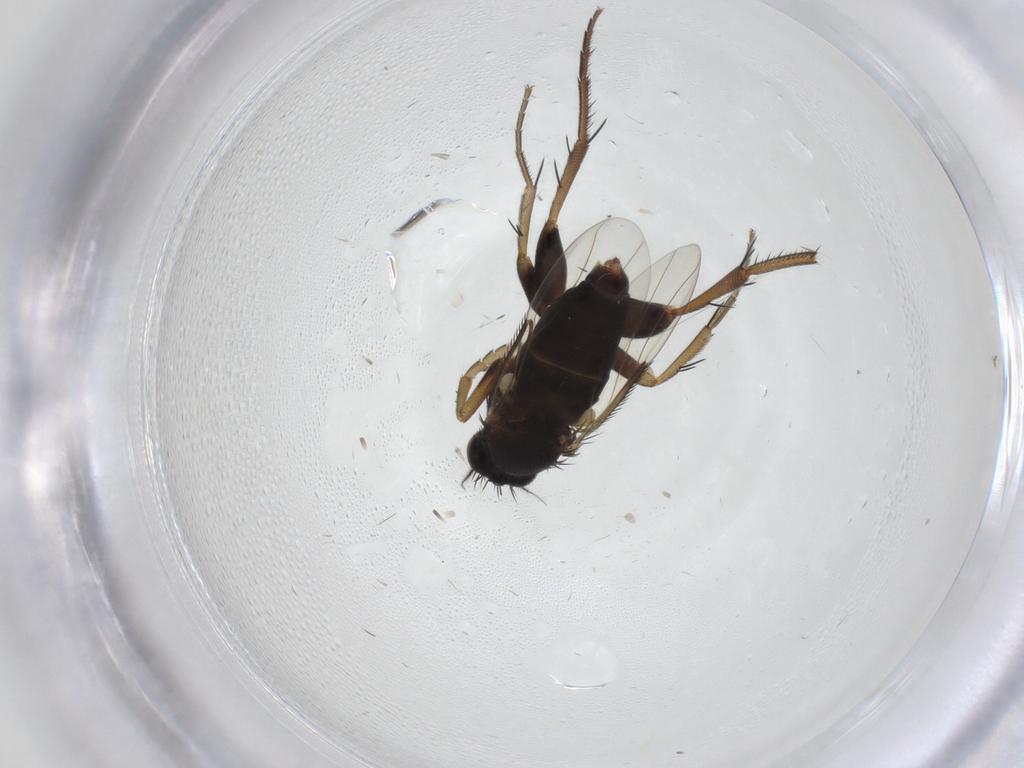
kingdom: Animalia
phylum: Arthropoda
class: Insecta
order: Diptera
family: Phoridae
